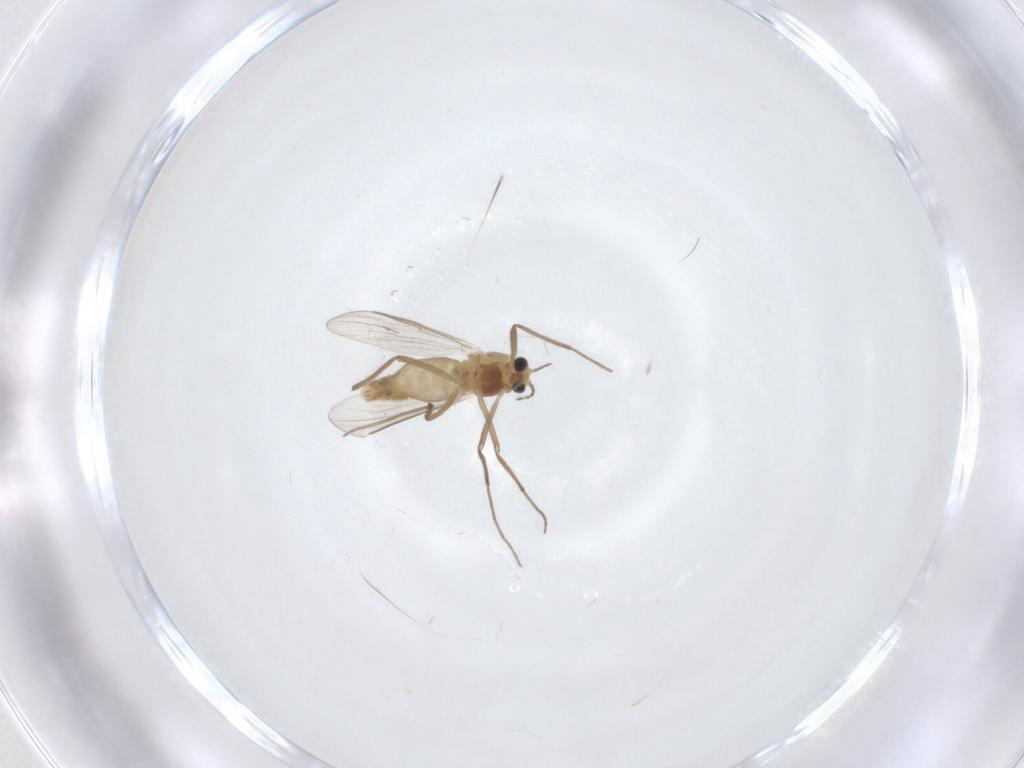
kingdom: Animalia
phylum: Arthropoda
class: Insecta
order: Diptera
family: Chironomidae
